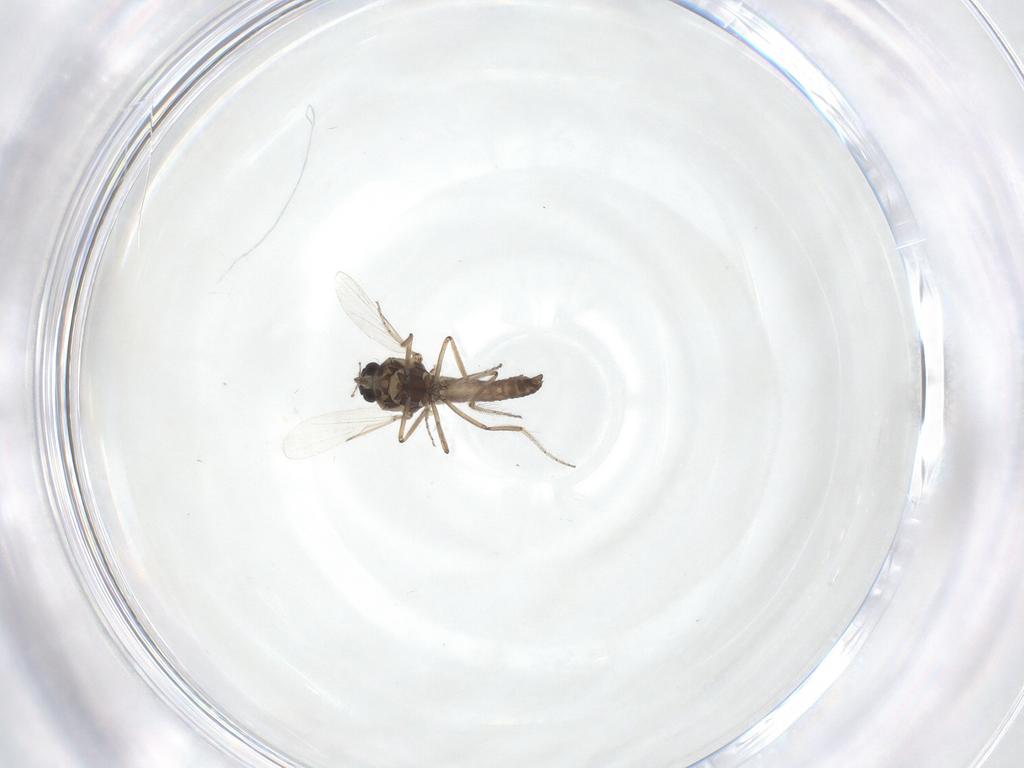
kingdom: Animalia
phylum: Arthropoda
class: Insecta
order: Diptera
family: Ceratopogonidae
